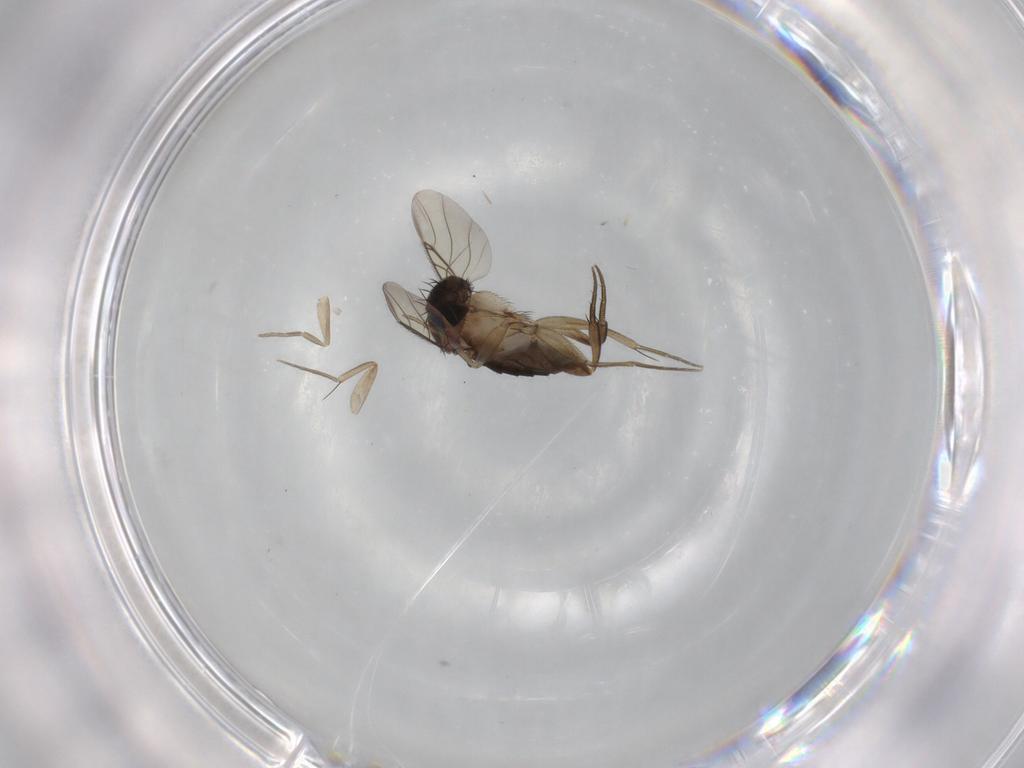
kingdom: Animalia
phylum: Arthropoda
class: Insecta
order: Diptera
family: Phoridae
